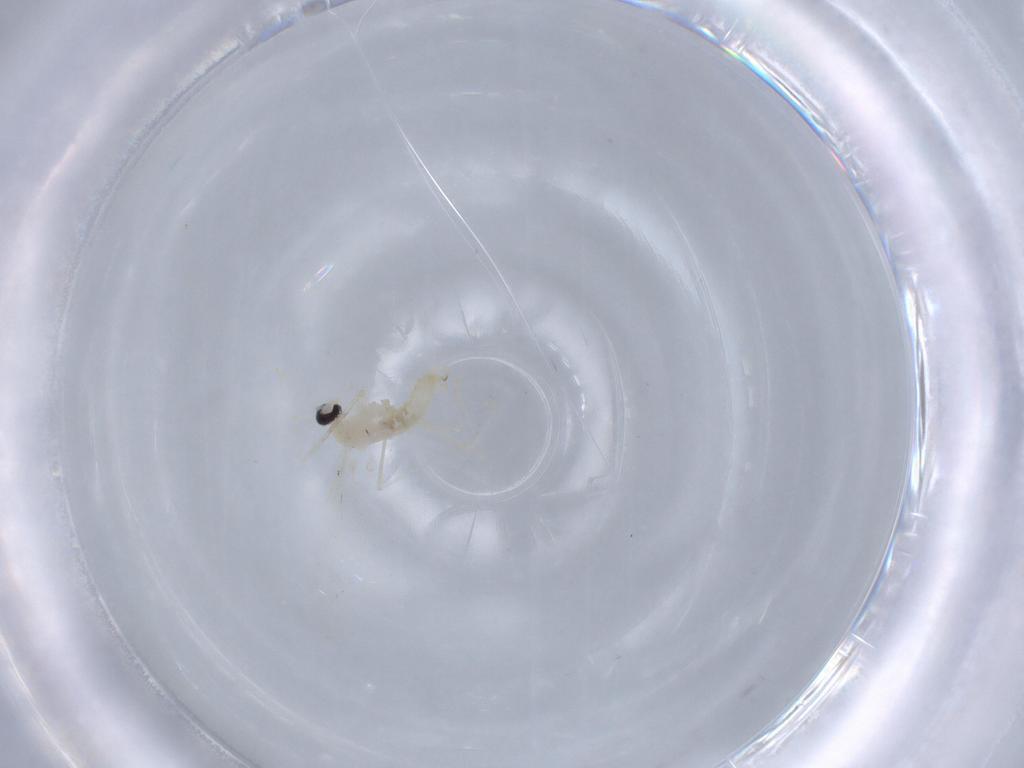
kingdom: Animalia
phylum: Arthropoda
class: Insecta
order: Diptera
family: Cecidomyiidae
